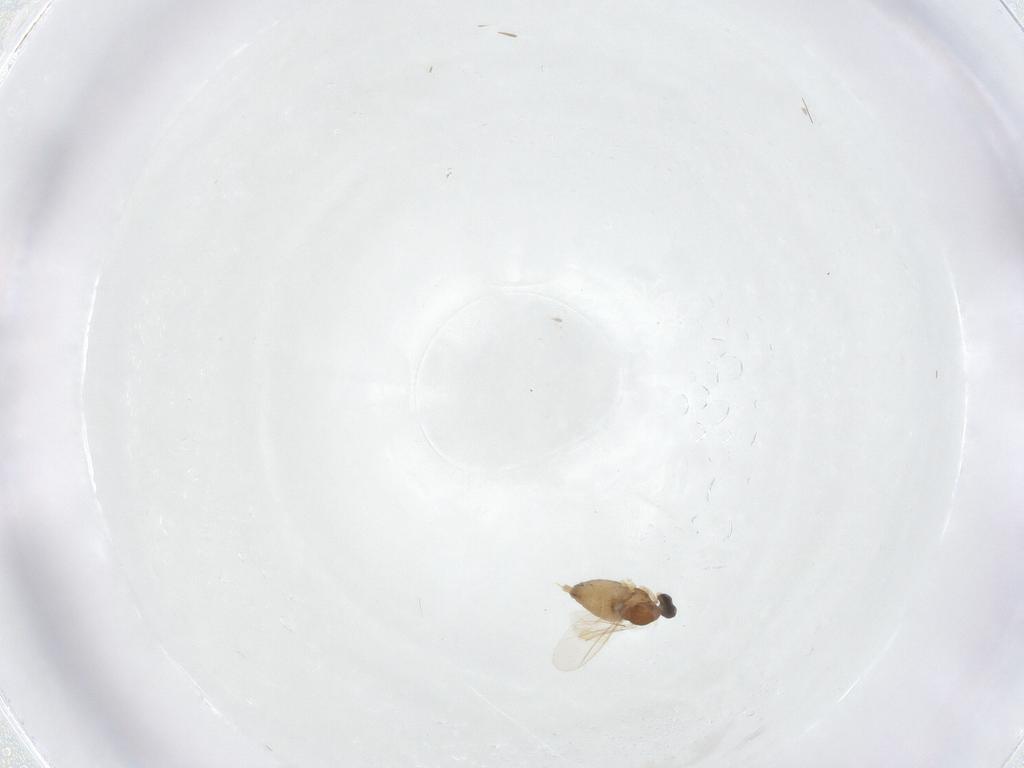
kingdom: Animalia
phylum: Arthropoda
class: Insecta
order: Diptera
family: Cecidomyiidae
